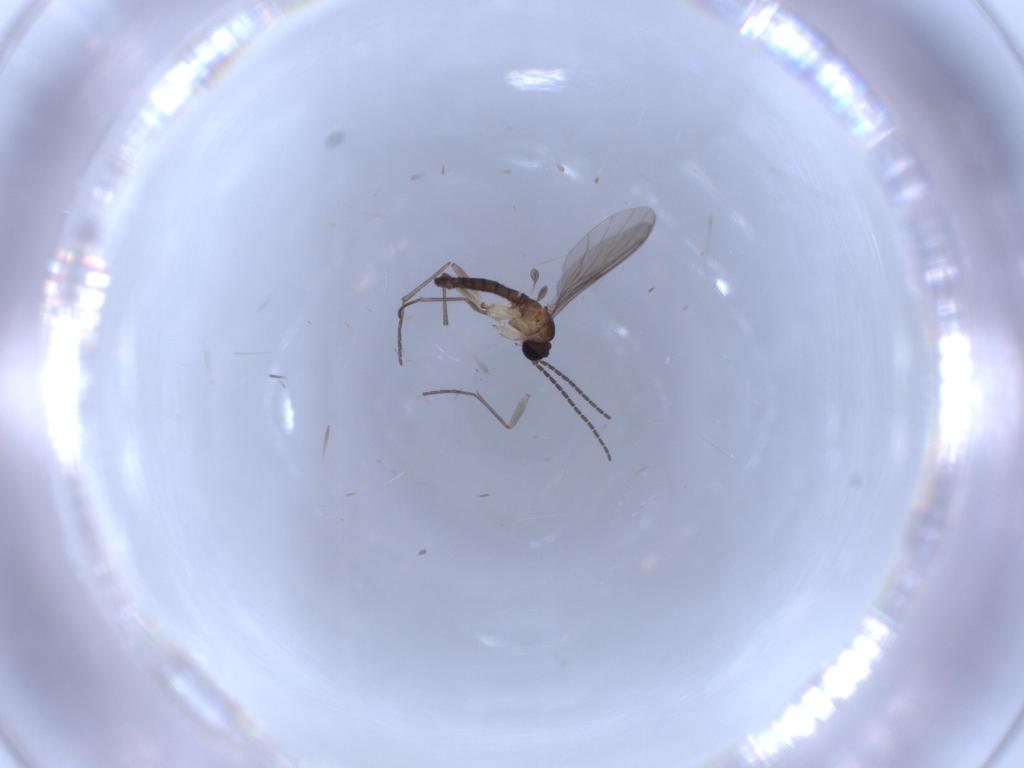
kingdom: Animalia
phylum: Arthropoda
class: Insecta
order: Diptera
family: Sciaridae
